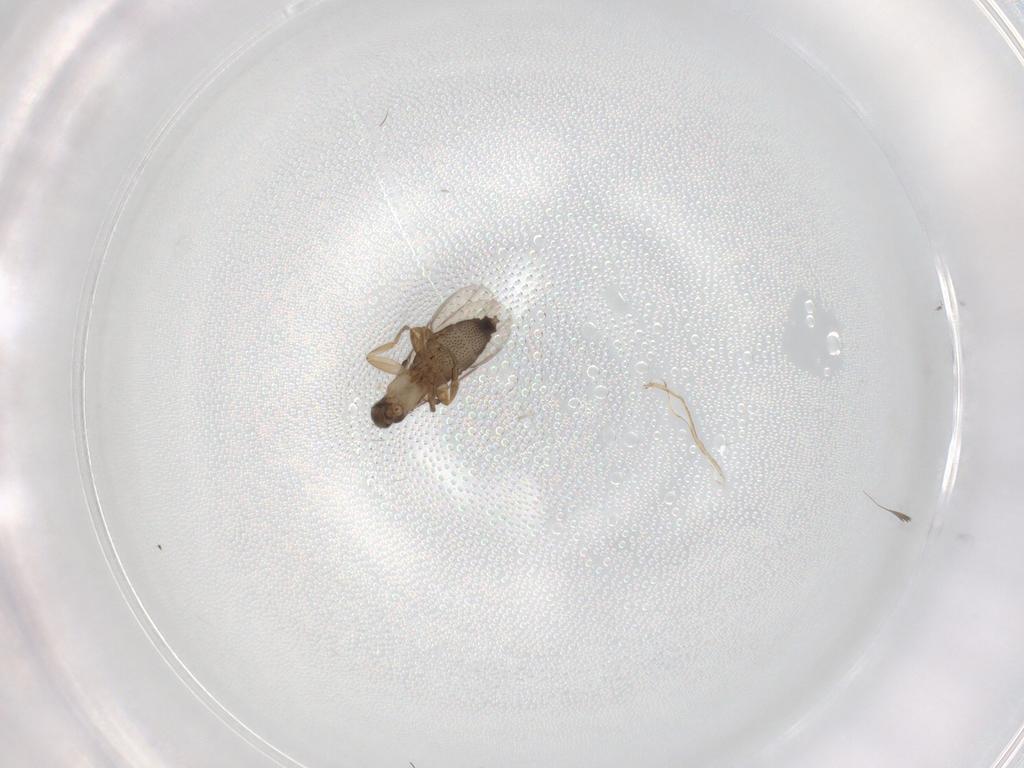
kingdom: Animalia
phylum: Arthropoda
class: Insecta
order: Diptera
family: Phoridae
